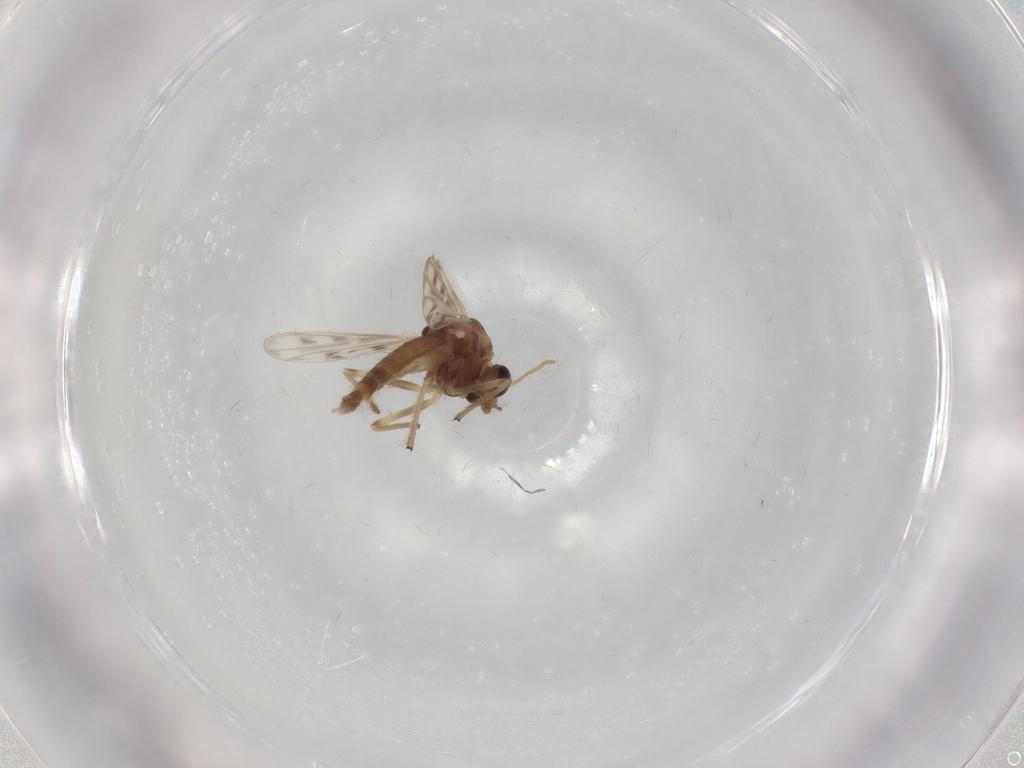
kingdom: Animalia
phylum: Arthropoda
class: Insecta
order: Diptera
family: Chironomidae
